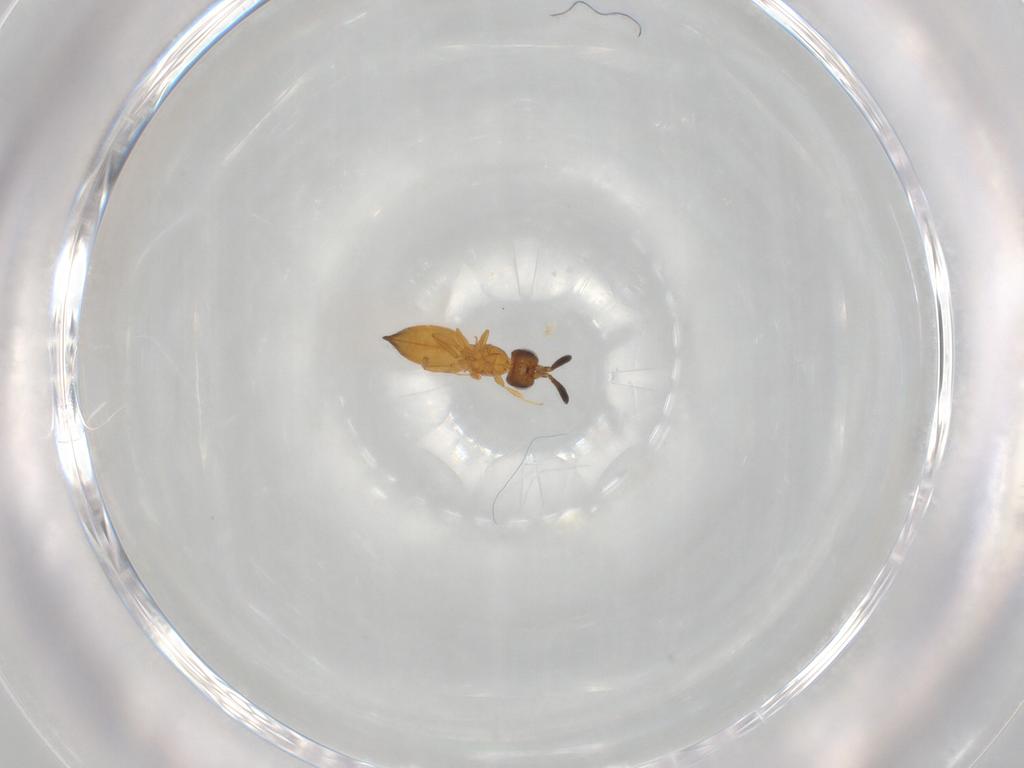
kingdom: Animalia
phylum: Arthropoda
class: Insecta
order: Hymenoptera
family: Scelionidae
